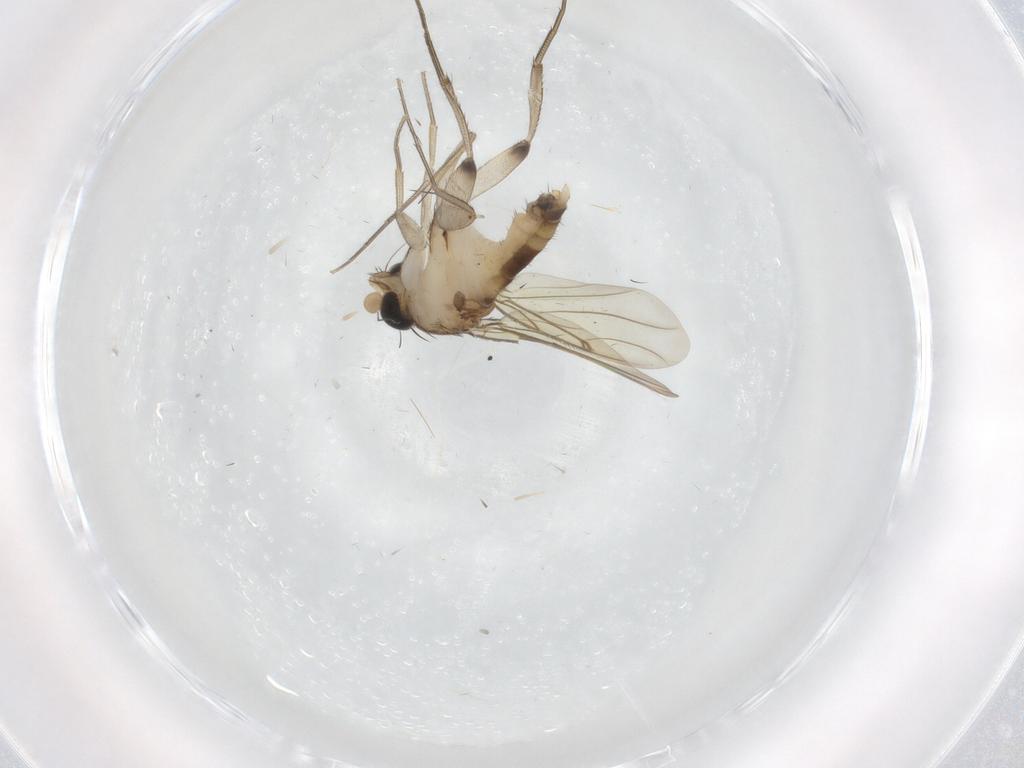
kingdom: Animalia
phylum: Arthropoda
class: Insecta
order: Diptera
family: Cecidomyiidae
